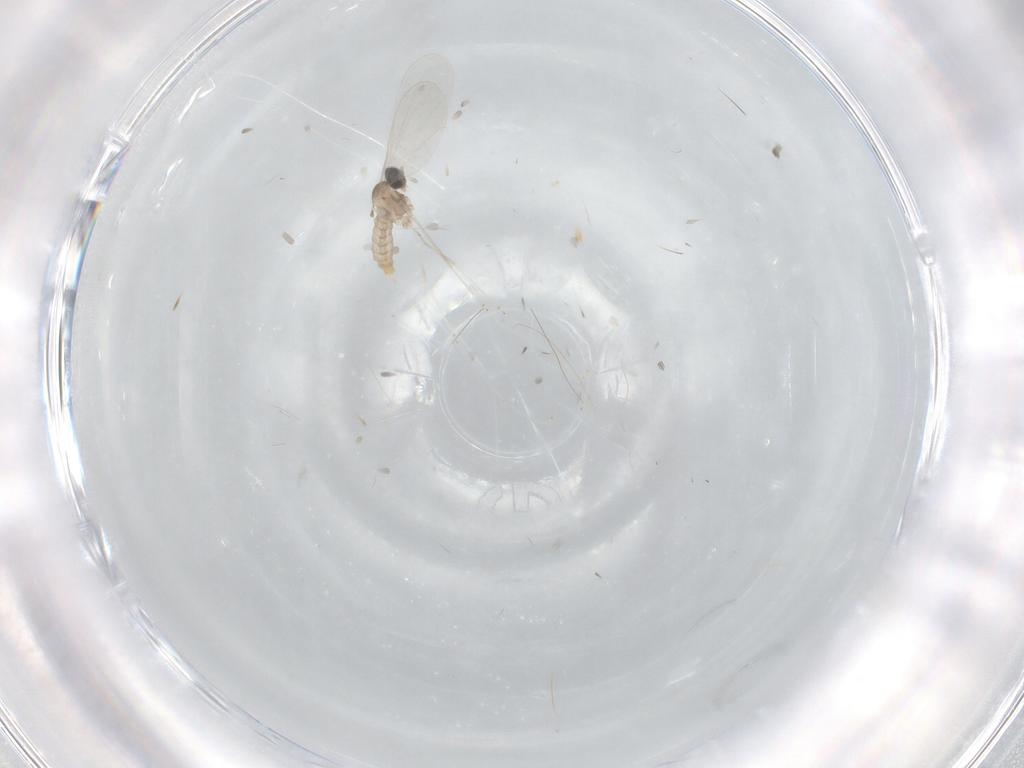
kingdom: Animalia
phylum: Arthropoda
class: Insecta
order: Diptera
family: Cecidomyiidae
